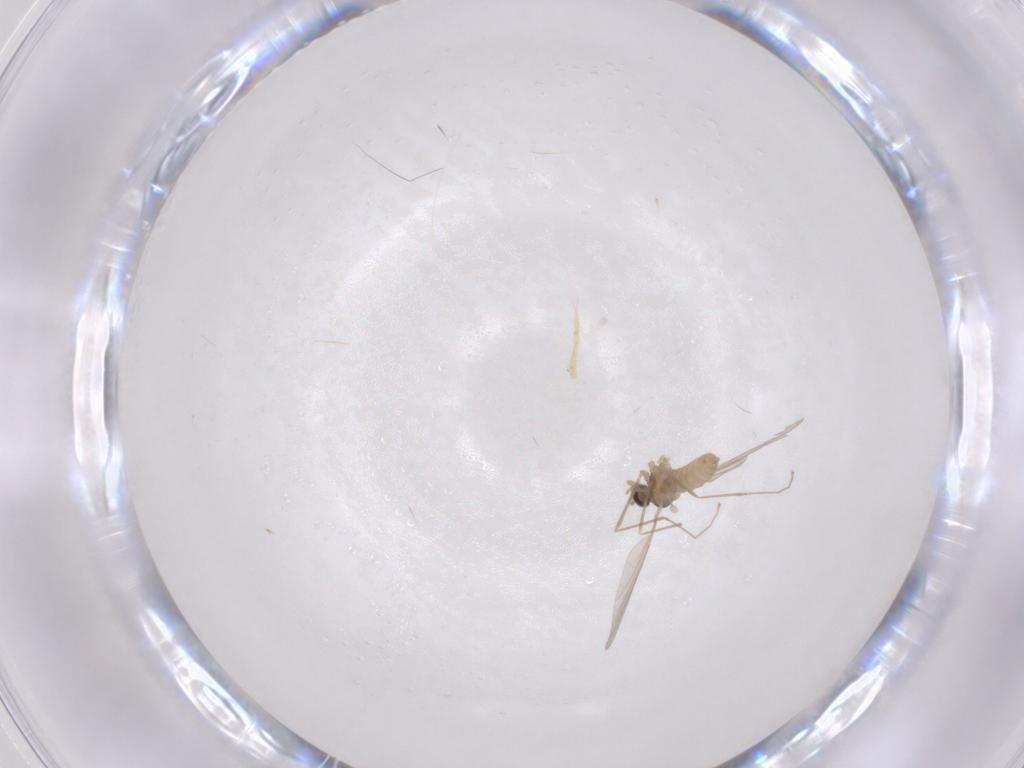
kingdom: Animalia
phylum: Arthropoda
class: Insecta
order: Diptera
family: Cecidomyiidae
